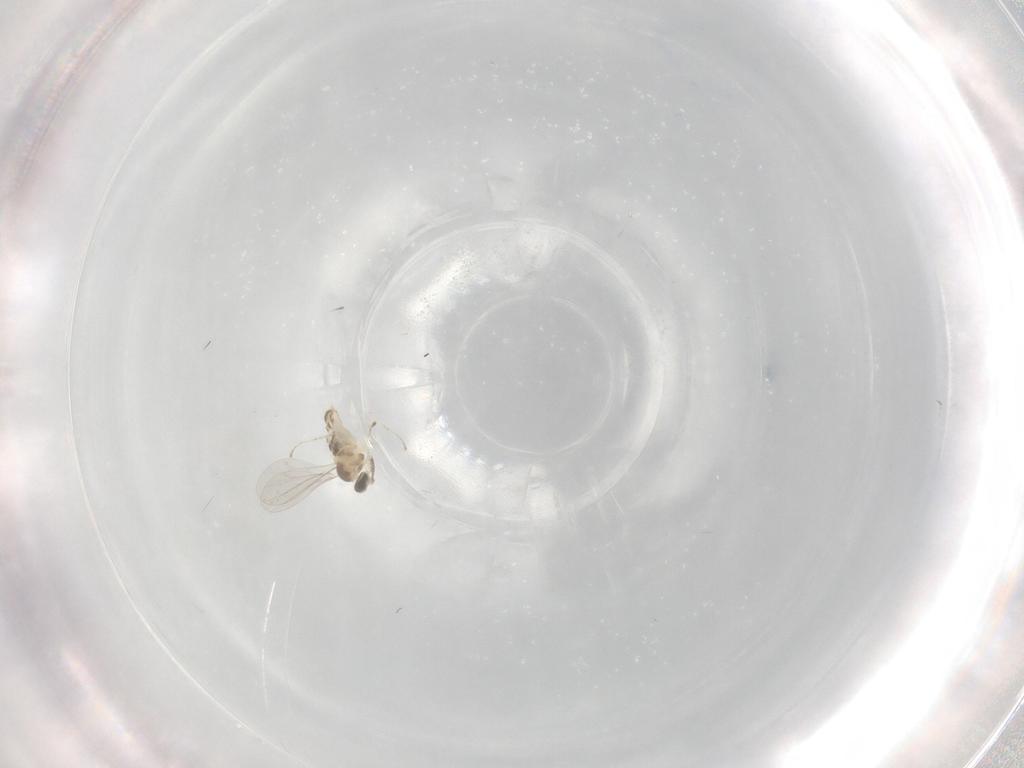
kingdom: Animalia
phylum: Arthropoda
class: Insecta
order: Diptera
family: Cecidomyiidae
